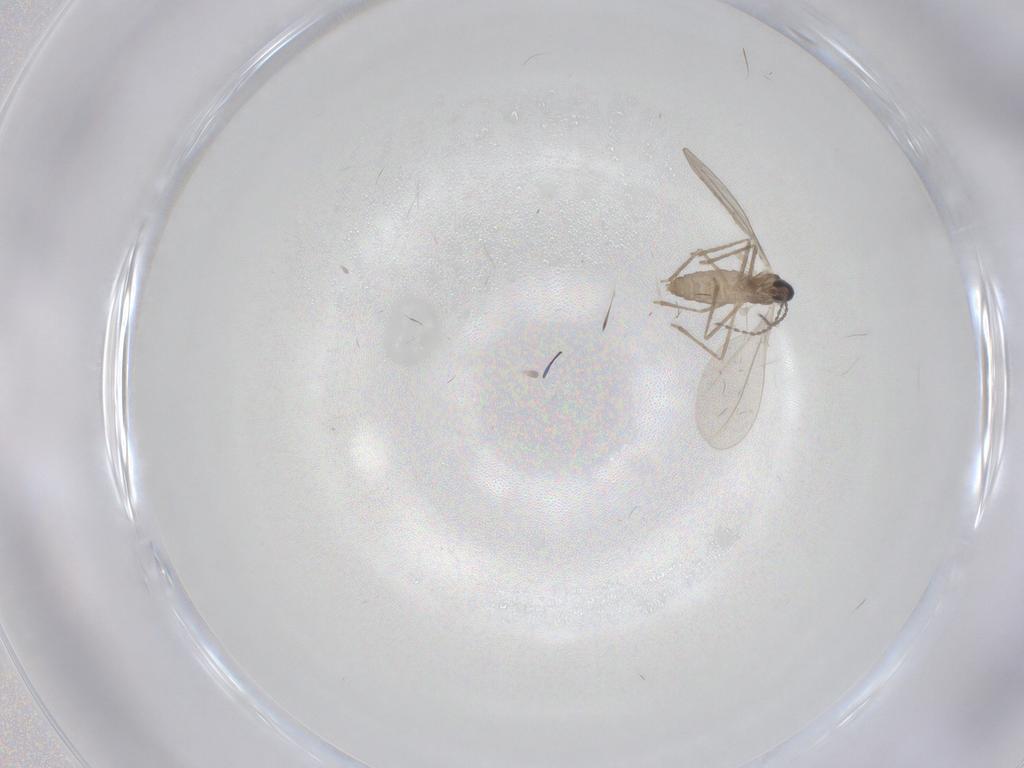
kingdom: Animalia
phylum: Arthropoda
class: Insecta
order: Diptera
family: Cecidomyiidae
